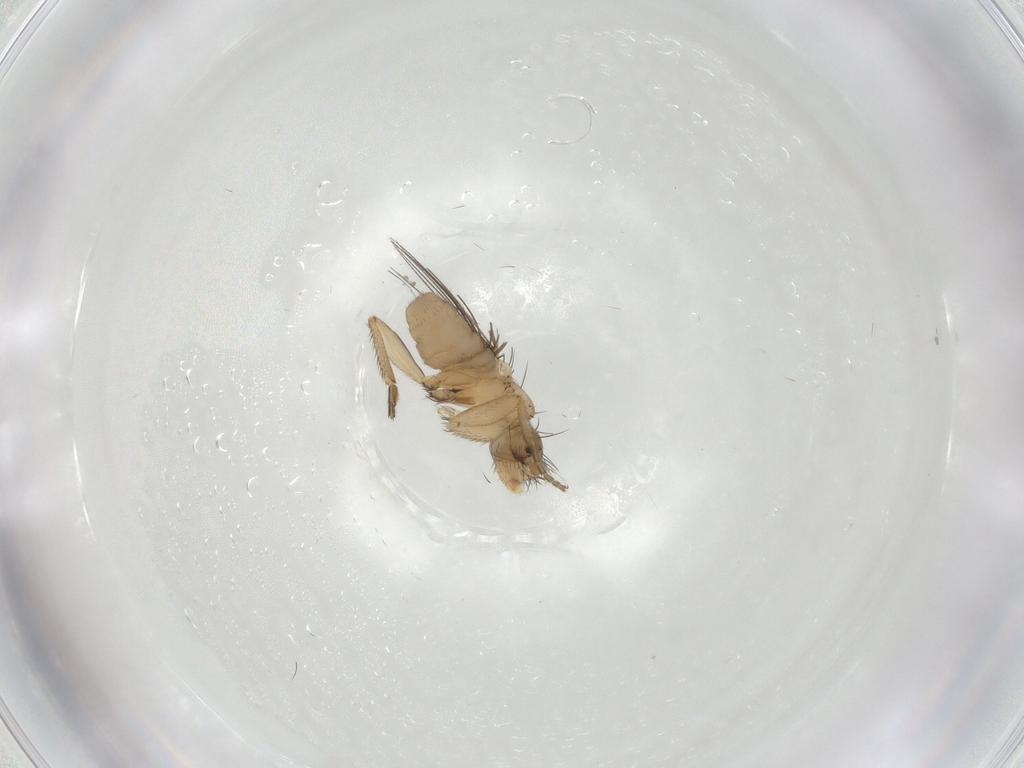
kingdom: Animalia
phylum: Arthropoda
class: Insecta
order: Diptera
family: Phoridae
